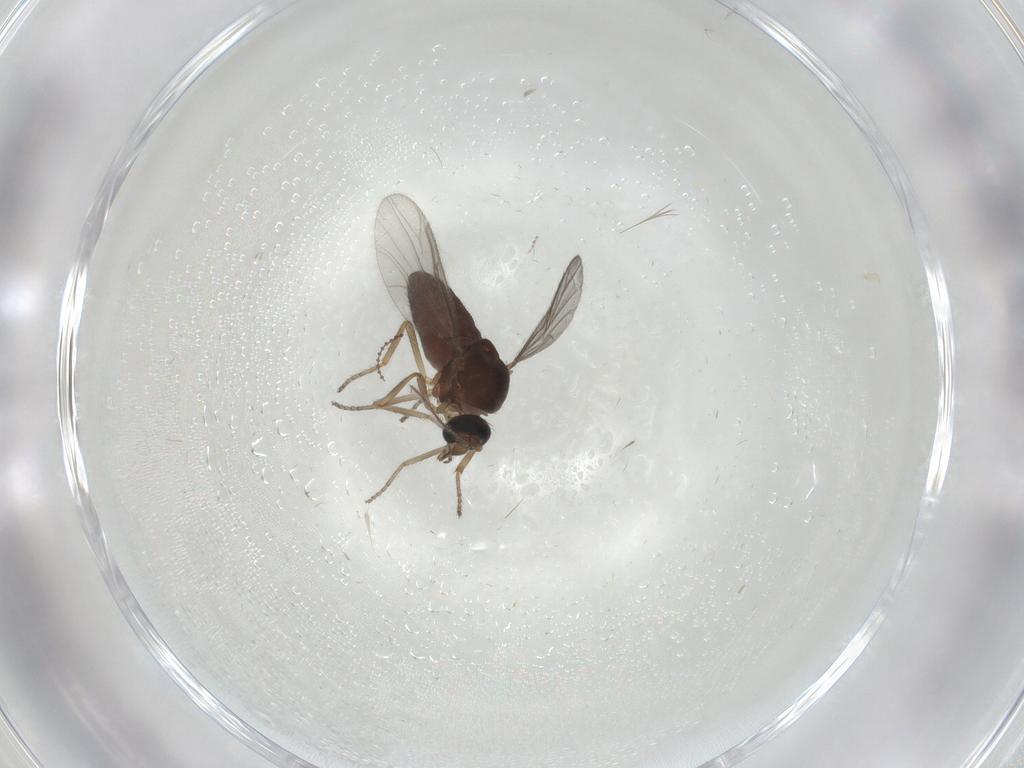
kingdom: Animalia
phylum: Arthropoda
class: Insecta
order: Diptera
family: Ceratopogonidae
